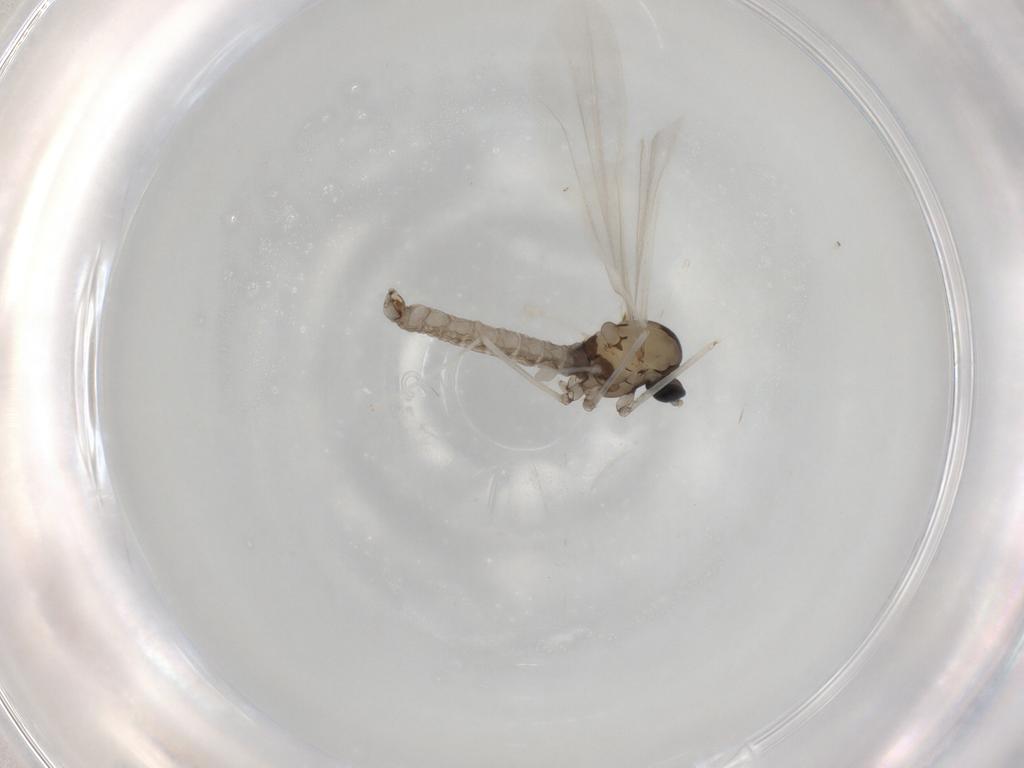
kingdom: Animalia
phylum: Arthropoda
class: Insecta
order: Diptera
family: Cecidomyiidae
